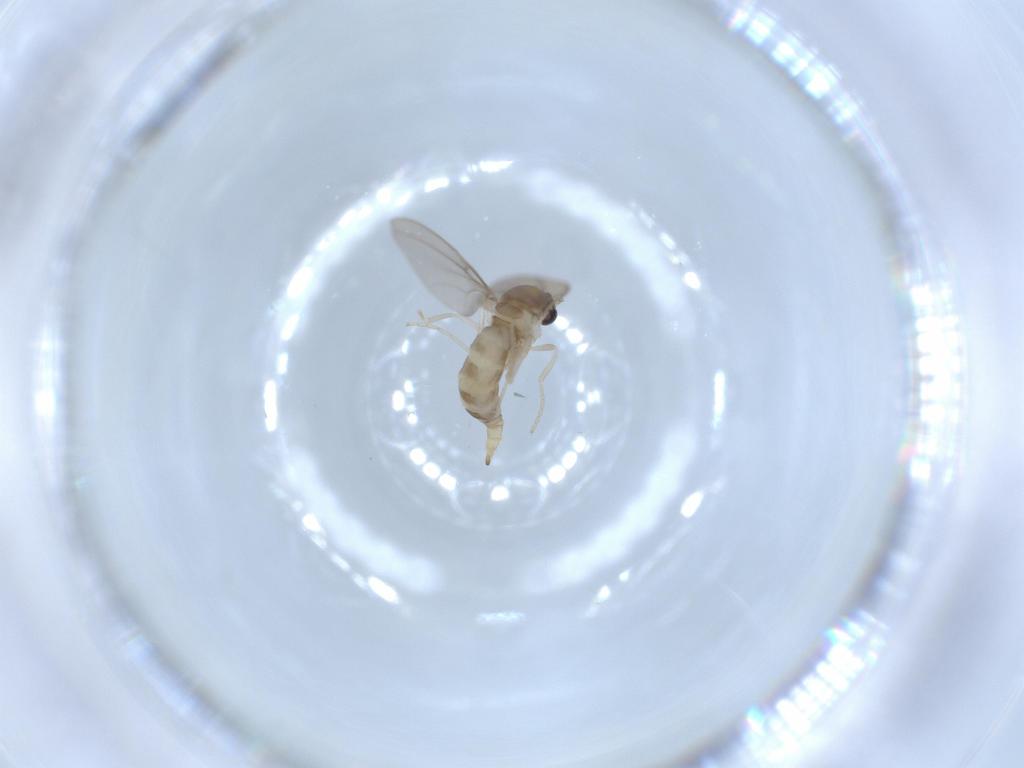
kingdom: Animalia
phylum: Arthropoda
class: Insecta
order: Diptera
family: Cecidomyiidae
